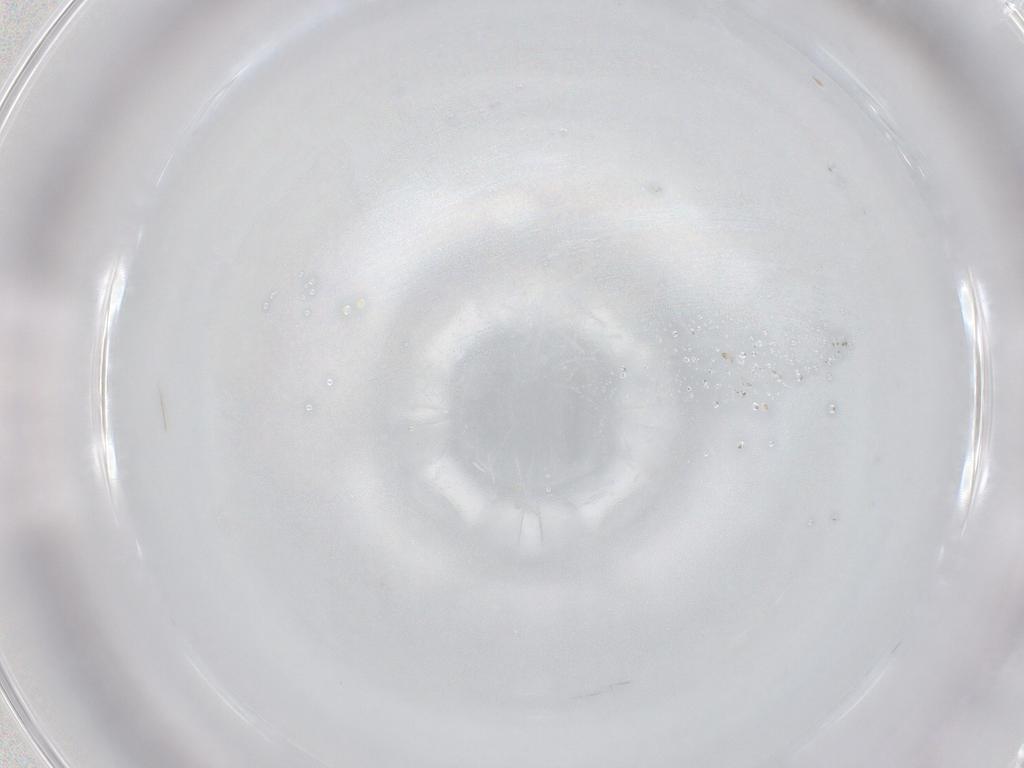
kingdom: Animalia
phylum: Arthropoda
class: Collembola
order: Entomobryomorpha
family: Entomobryidae
